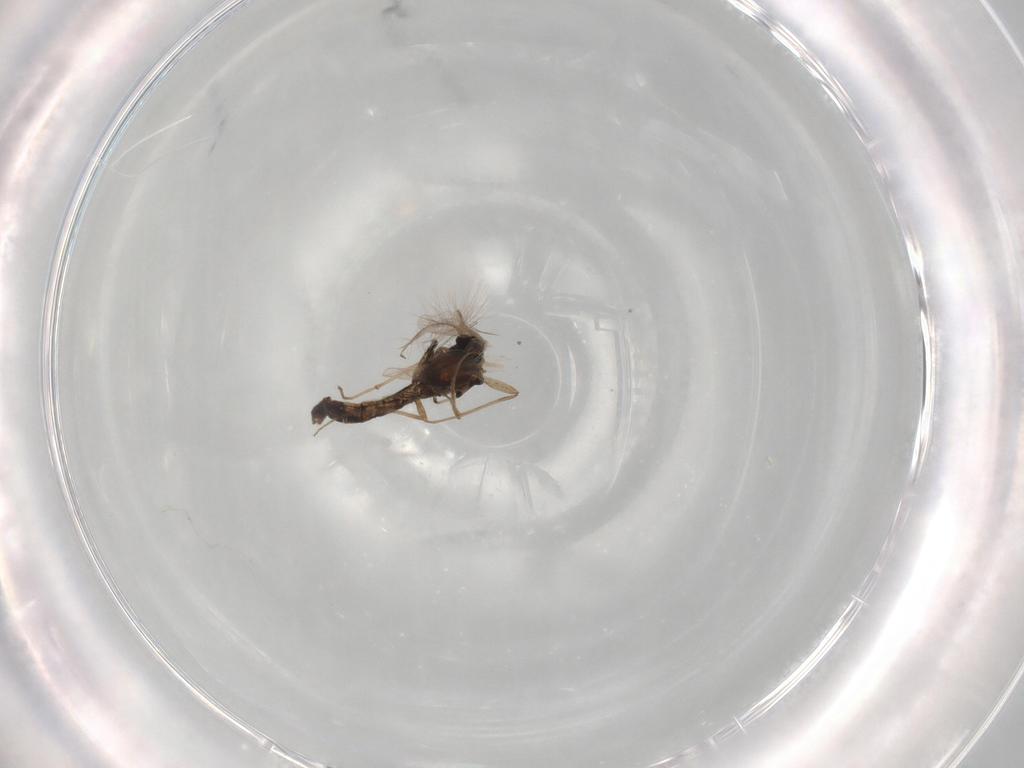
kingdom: Animalia
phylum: Arthropoda
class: Insecta
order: Diptera
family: Chironomidae
